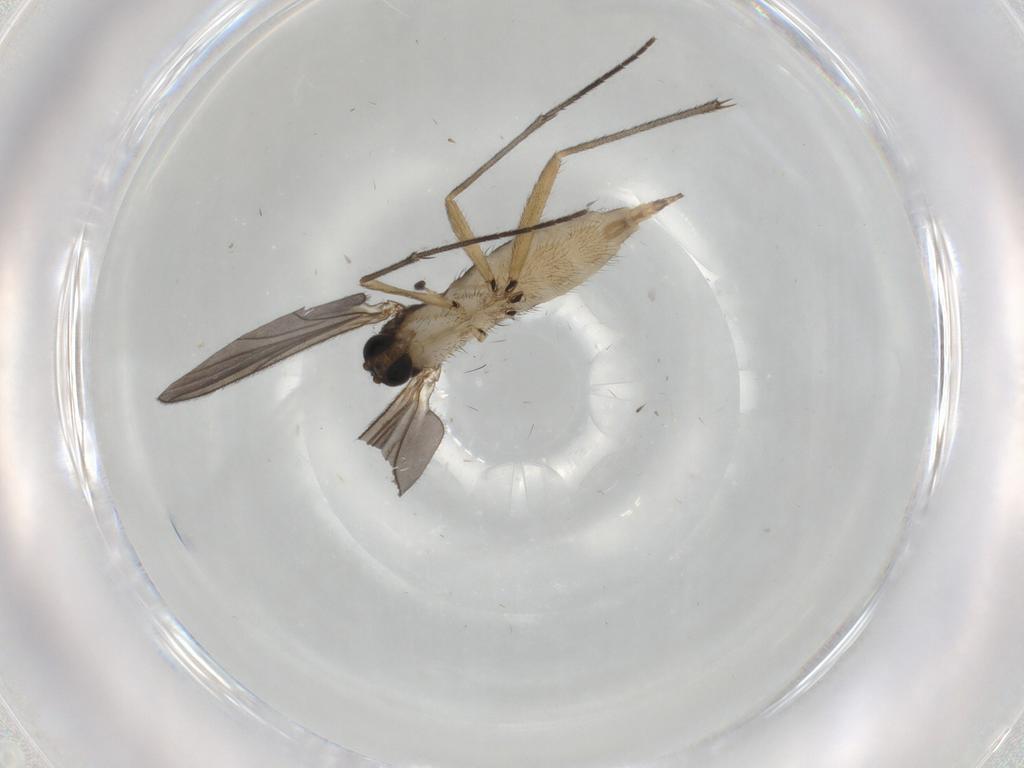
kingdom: Animalia
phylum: Arthropoda
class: Insecta
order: Diptera
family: Sciaridae
